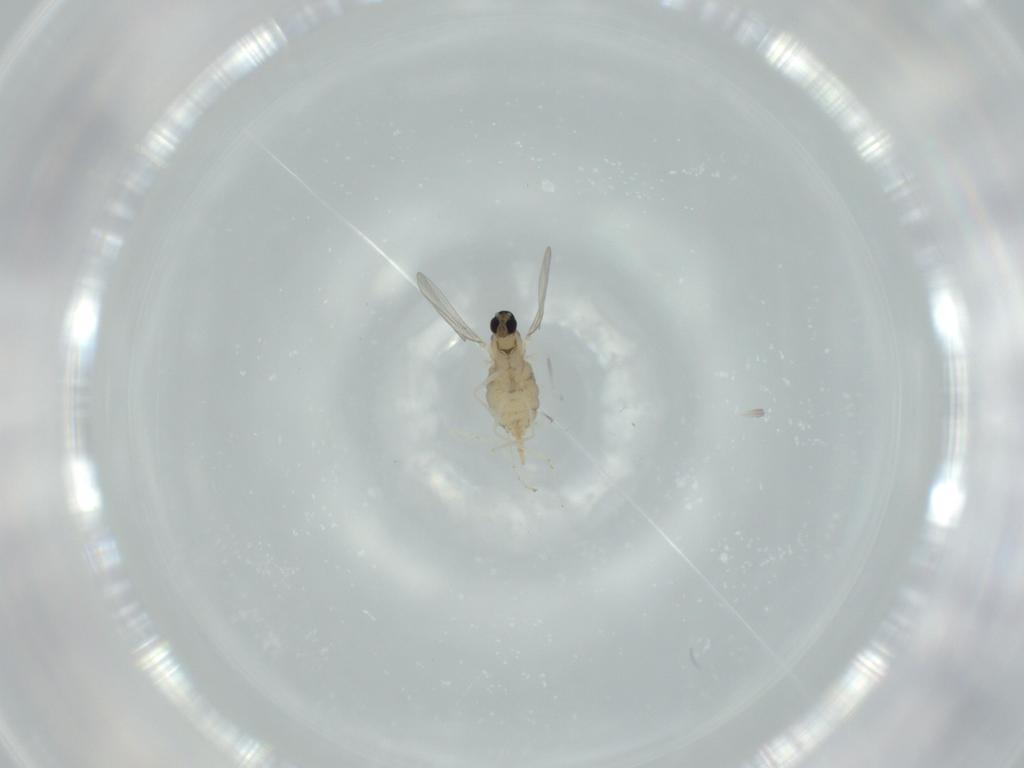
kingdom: Animalia
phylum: Arthropoda
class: Insecta
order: Diptera
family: Cecidomyiidae
